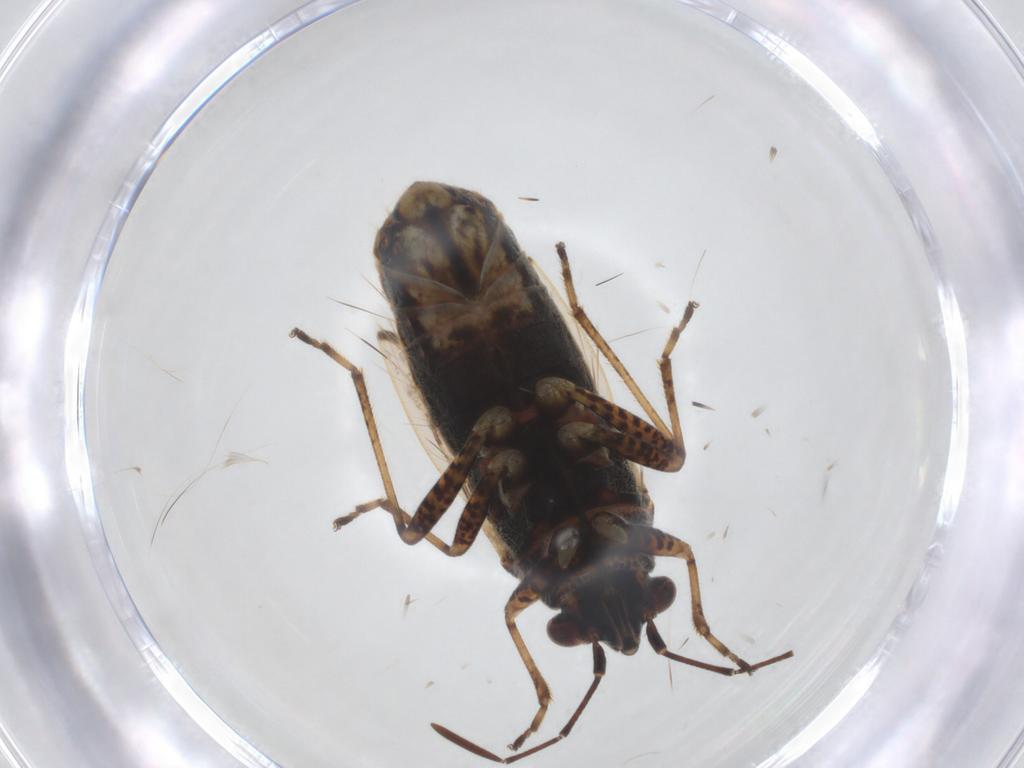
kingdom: Animalia
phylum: Arthropoda
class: Insecta
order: Hemiptera
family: Lygaeidae
